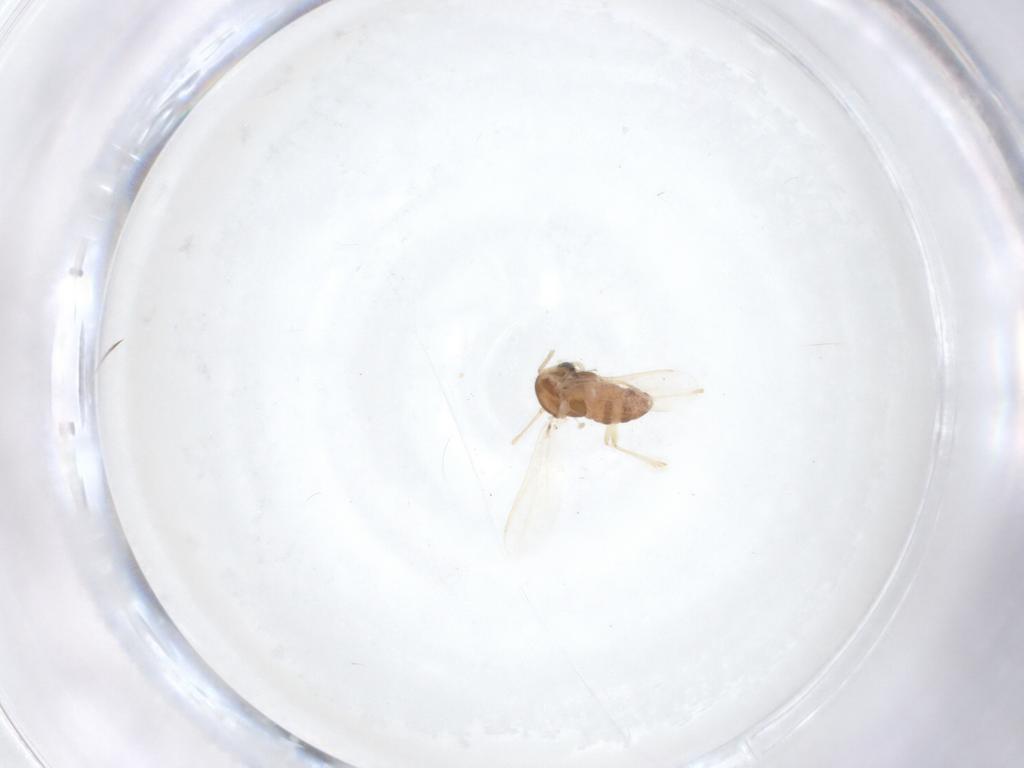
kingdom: Animalia
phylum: Arthropoda
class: Insecta
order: Diptera
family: Chironomidae
